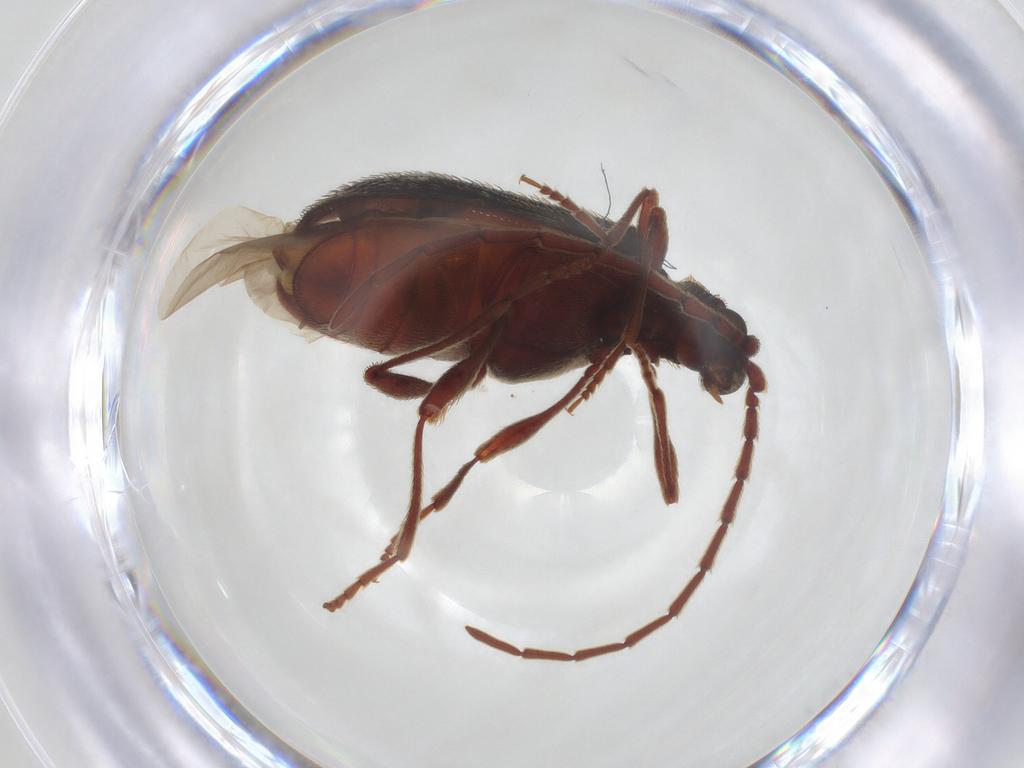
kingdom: Animalia
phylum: Arthropoda
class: Insecta
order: Coleoptera
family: Ptinidae
